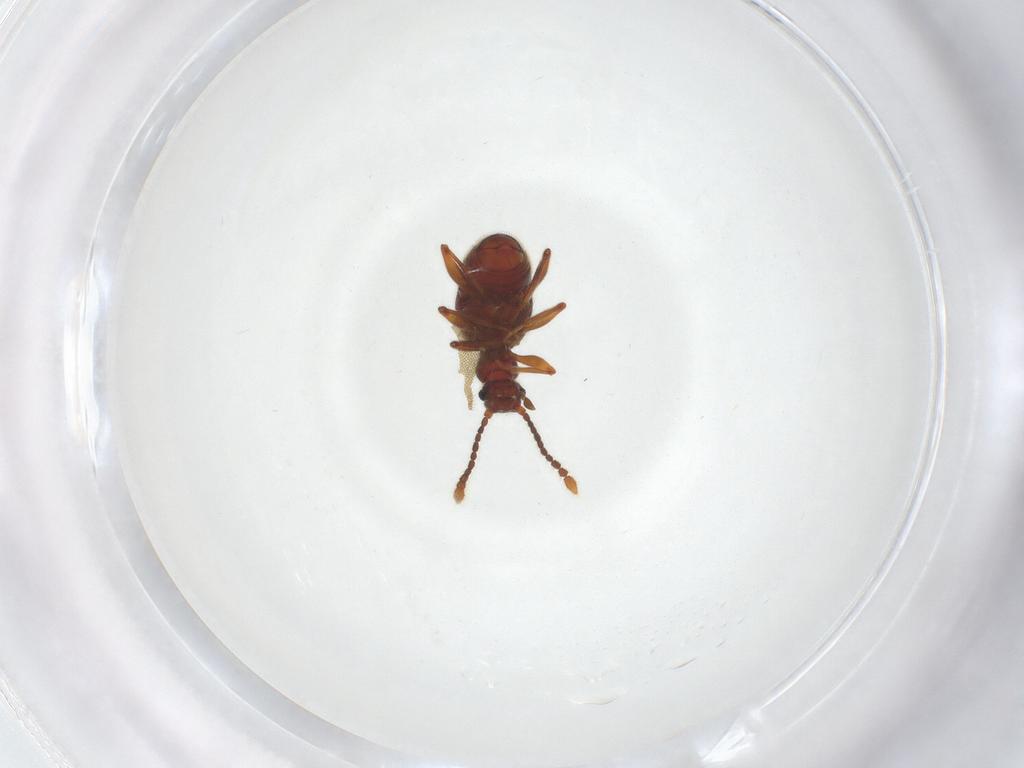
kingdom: Animalia
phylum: Arthropoda
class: Insecta
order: Coleoptera
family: Staphylinidae
